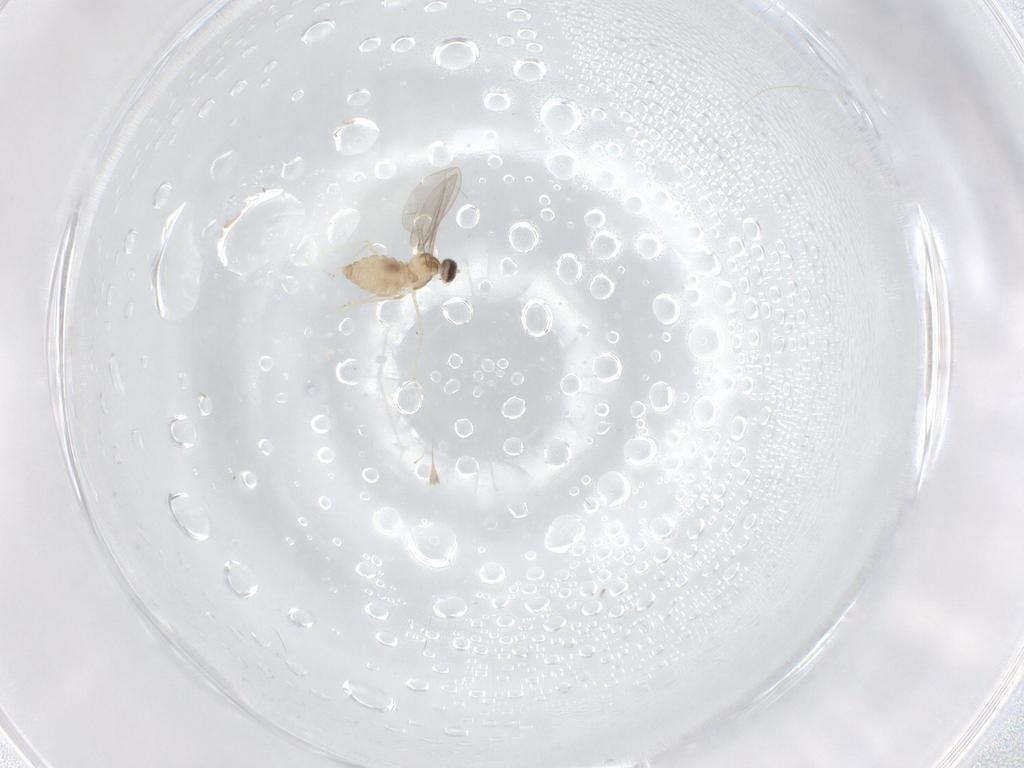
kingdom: Animalia
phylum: Arthropoda
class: Insecta
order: Diptera
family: Cecidomyiidae
